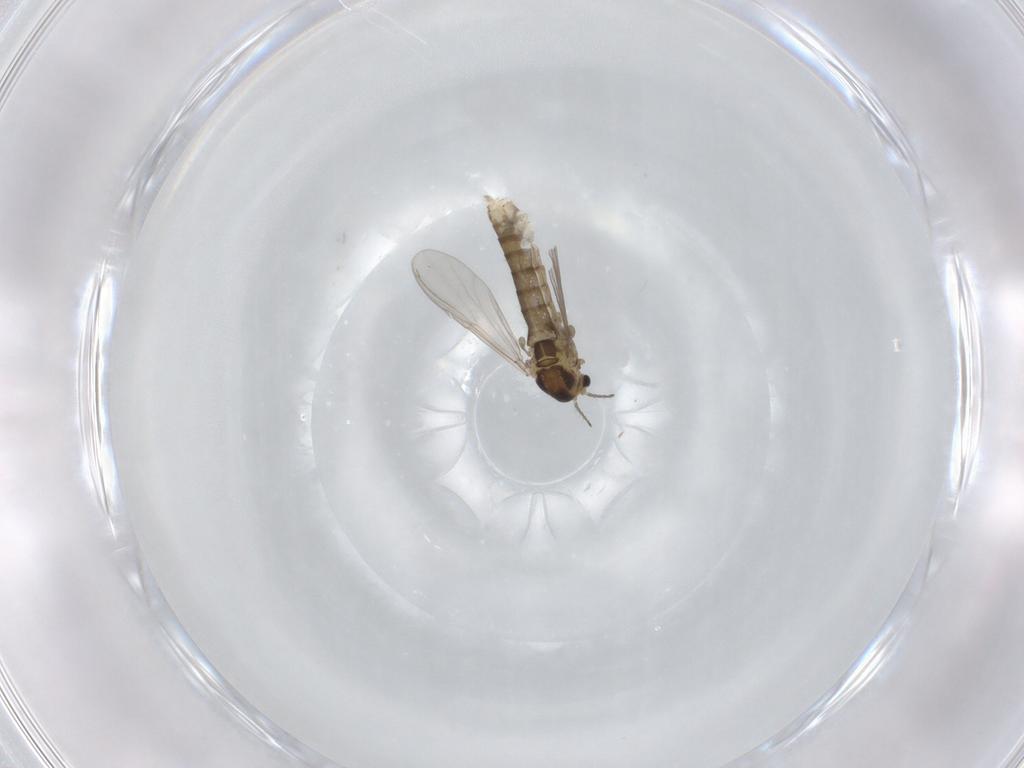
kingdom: Animalia
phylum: Arthropoda
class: Insecta
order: Diptera
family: Chironomidae
